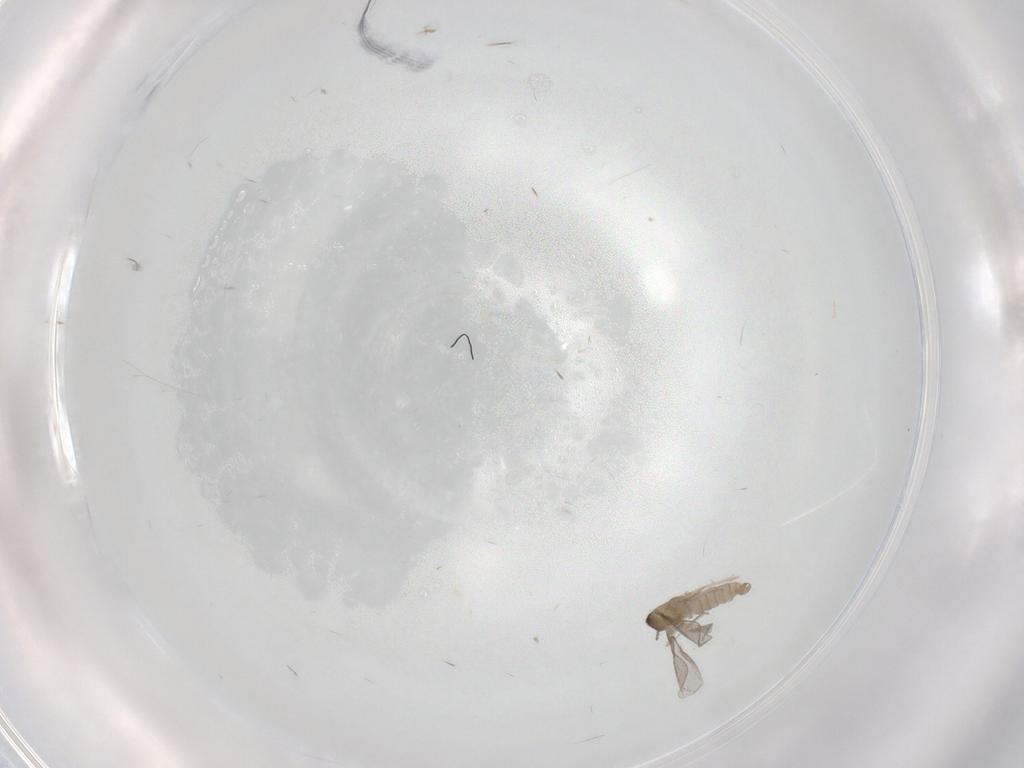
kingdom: Animalia
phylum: Arthropoda
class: Insecta
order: Diptera
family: Cecidomyiidae
